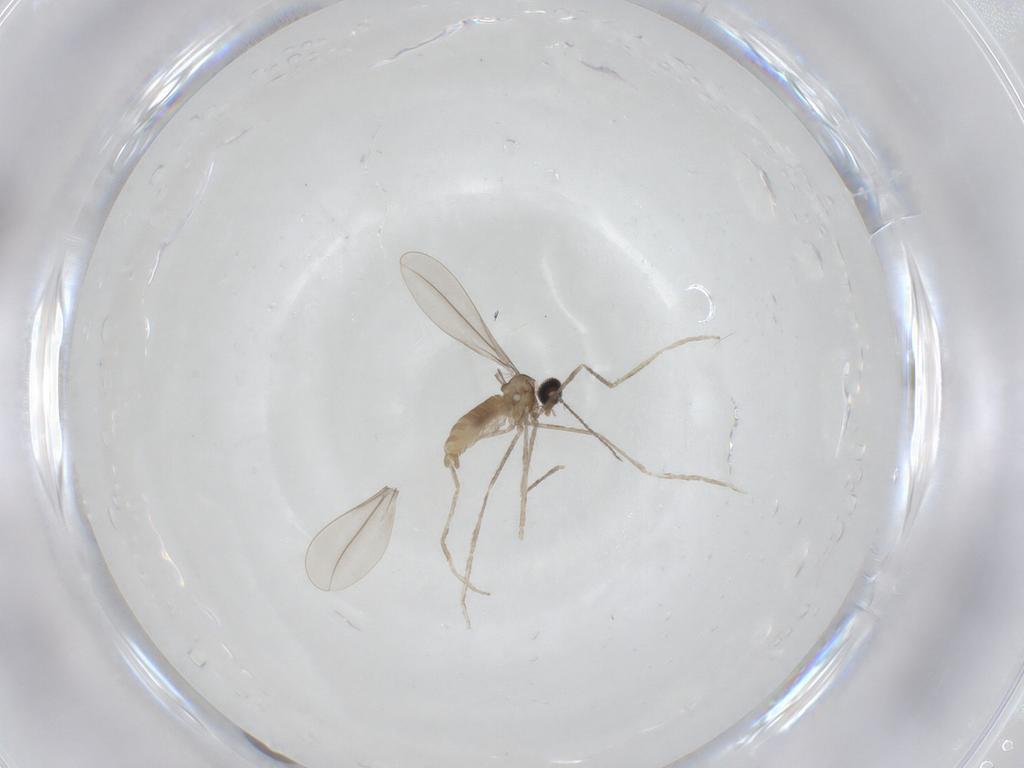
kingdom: Animalia
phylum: Arthropoda
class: Insecta
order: Diptera
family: Cecidomyiidae
